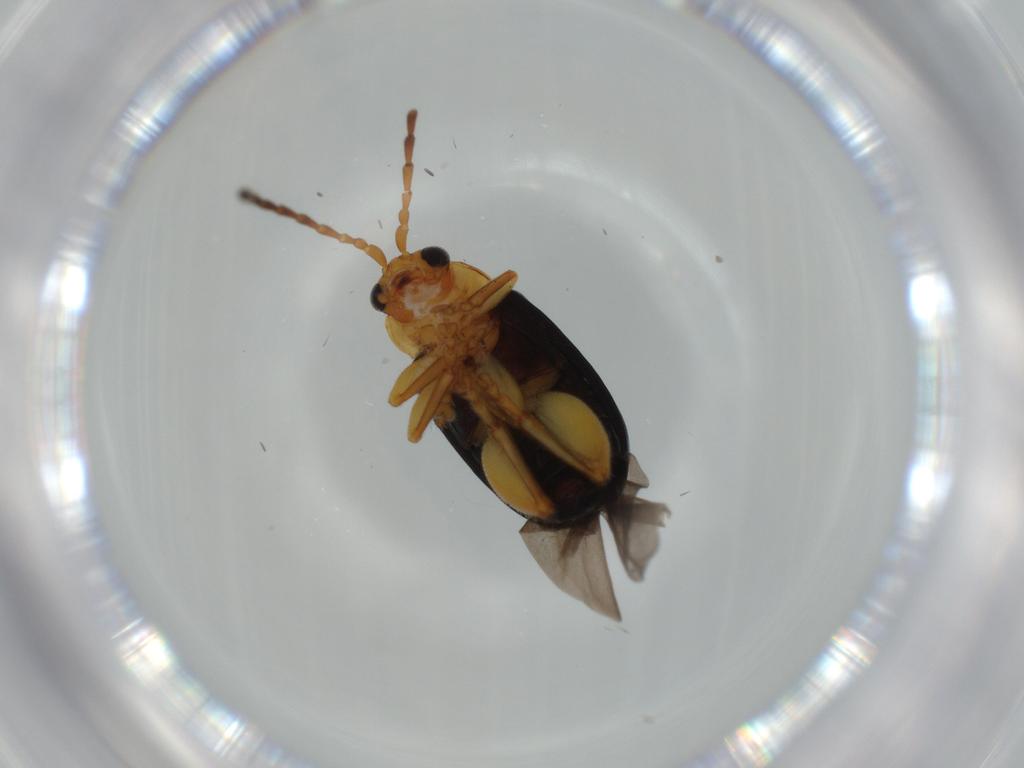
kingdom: Animalia
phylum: Arthropoda
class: Insecta
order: Coleoptera
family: Chrysomelidae
